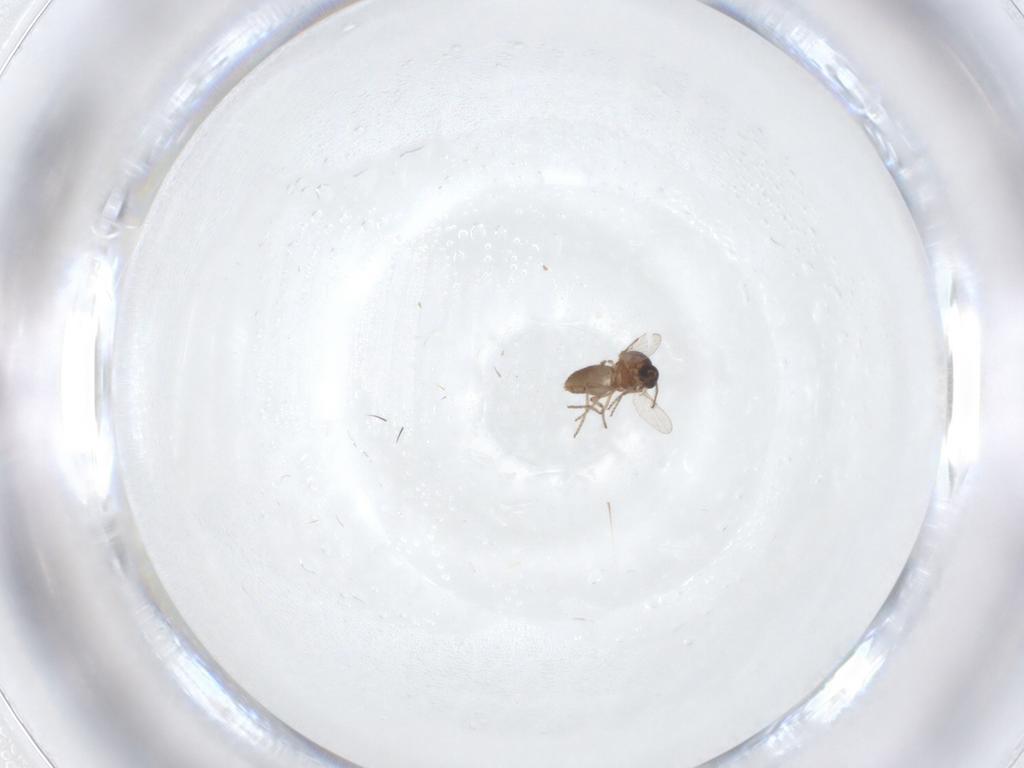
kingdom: Animalia
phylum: Arthropoda
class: Insecta
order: Diptera
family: Ceratopogonidae
